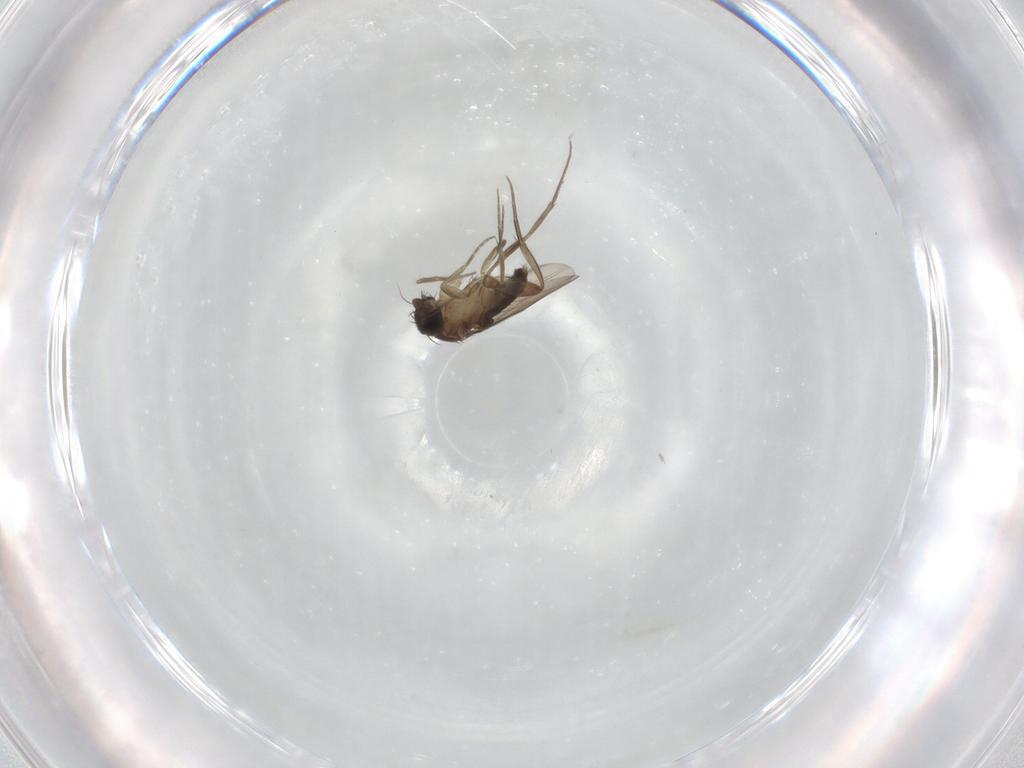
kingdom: Animalia
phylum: Arthropoda
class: Insecta
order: Diptera
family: Phoridae
